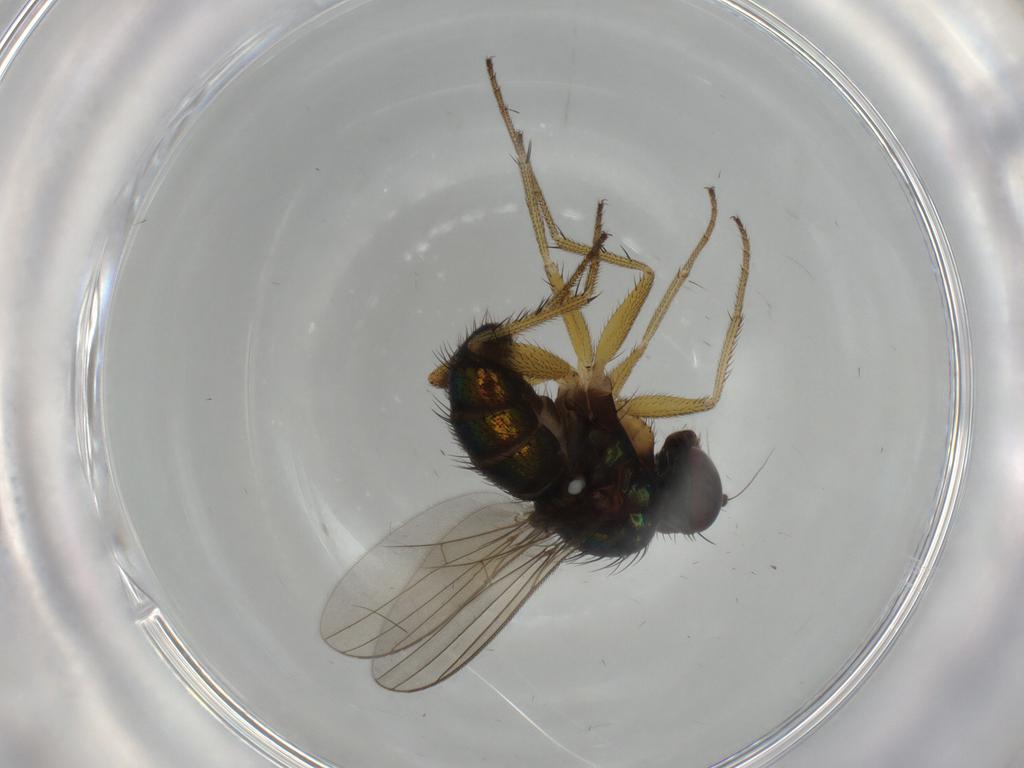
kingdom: Animalia
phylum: Arthropoda
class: Insecta
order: Diptera
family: Dolichopodidae
